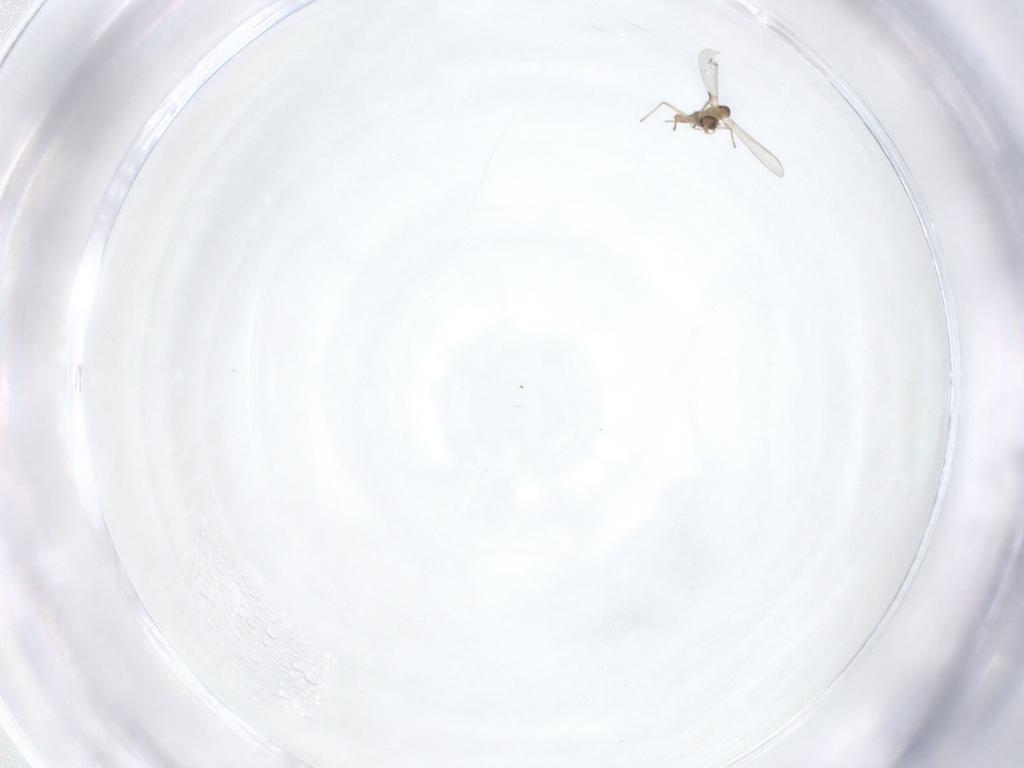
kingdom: Animalia
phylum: Arthropoda
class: Insecta
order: Diptera
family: Chironomidae
